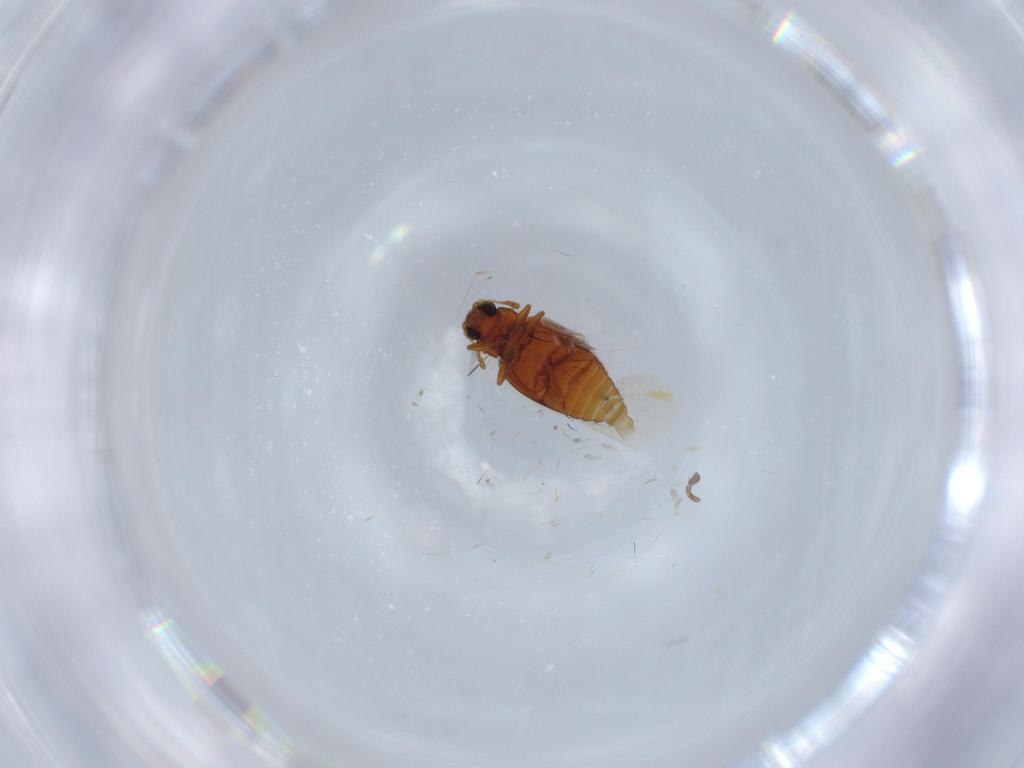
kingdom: Animalia
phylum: Arthropoda
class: Insecta
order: Coleoptera
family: Latridiidae
